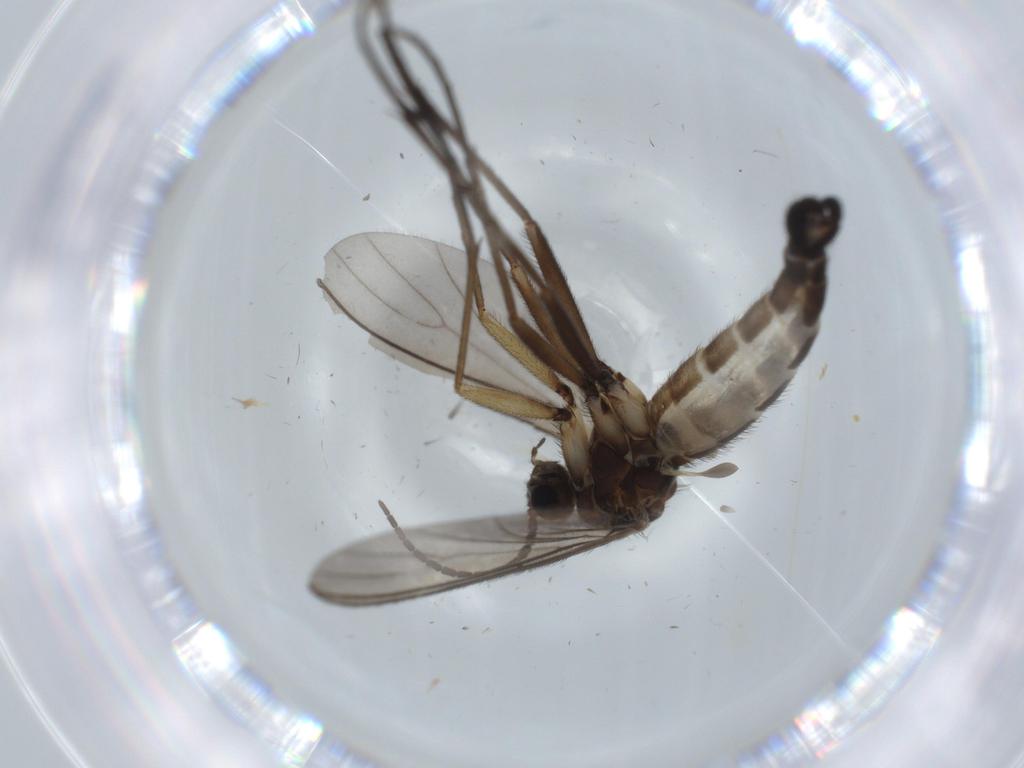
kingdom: Animalia
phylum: Arthropoda
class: Insecta
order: Diptera
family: Sciaridae
